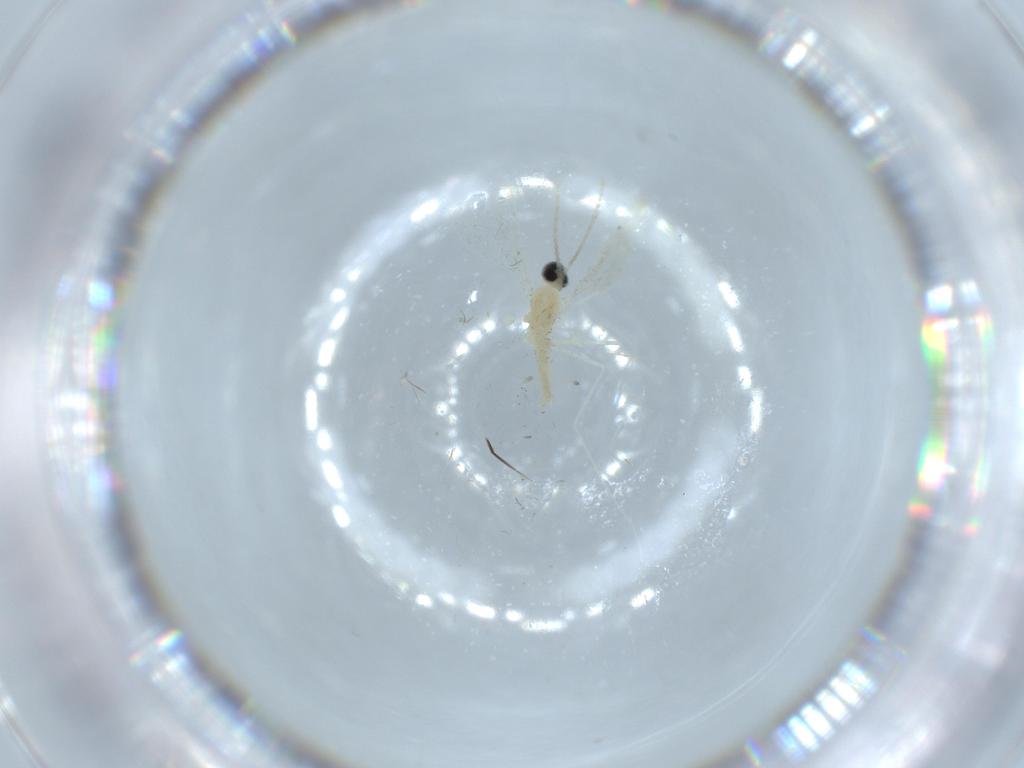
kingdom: Animalia
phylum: Arthropoda
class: Insecta
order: Diptera
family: Cecidomyiidae
